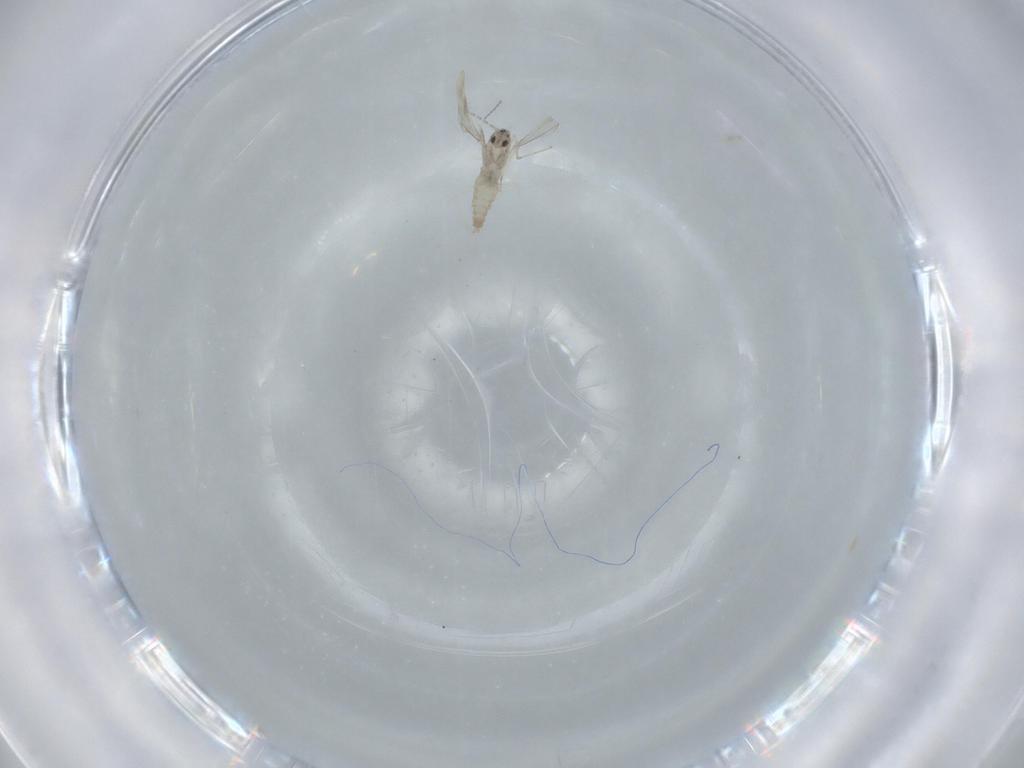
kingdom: Animalia
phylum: Arthropoda
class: Insecta
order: Diptera
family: Cecidomyiidae
